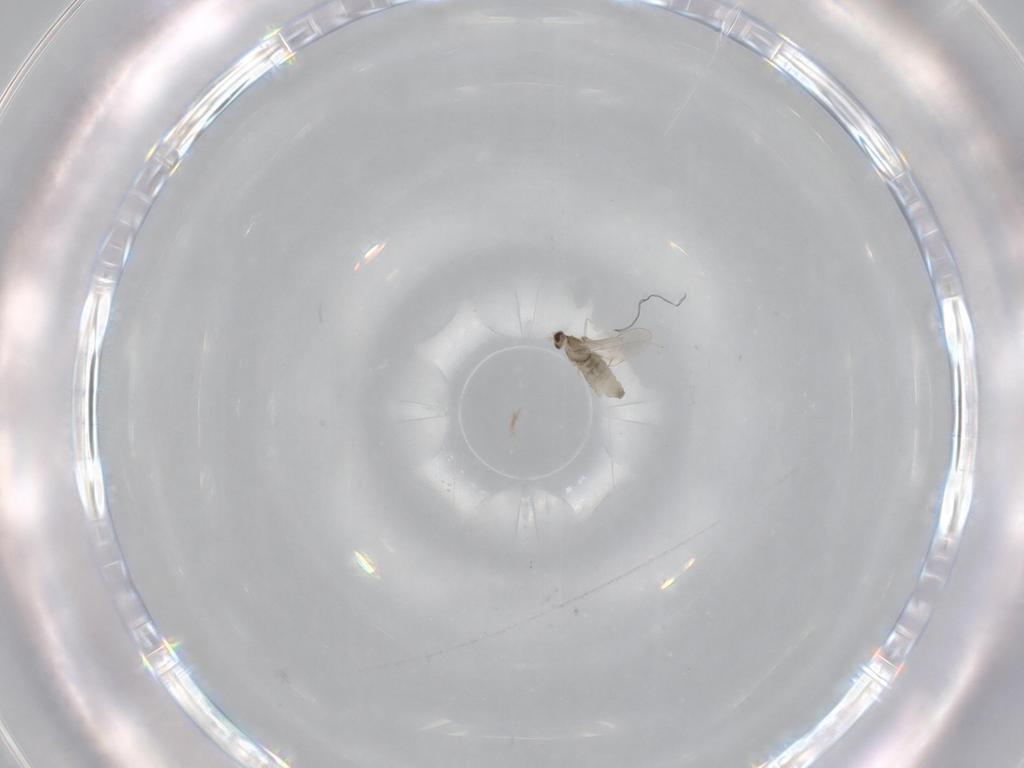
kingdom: Animalia
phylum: Arthropoda
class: Insecta
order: Diptera
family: Cecidomyiidae
